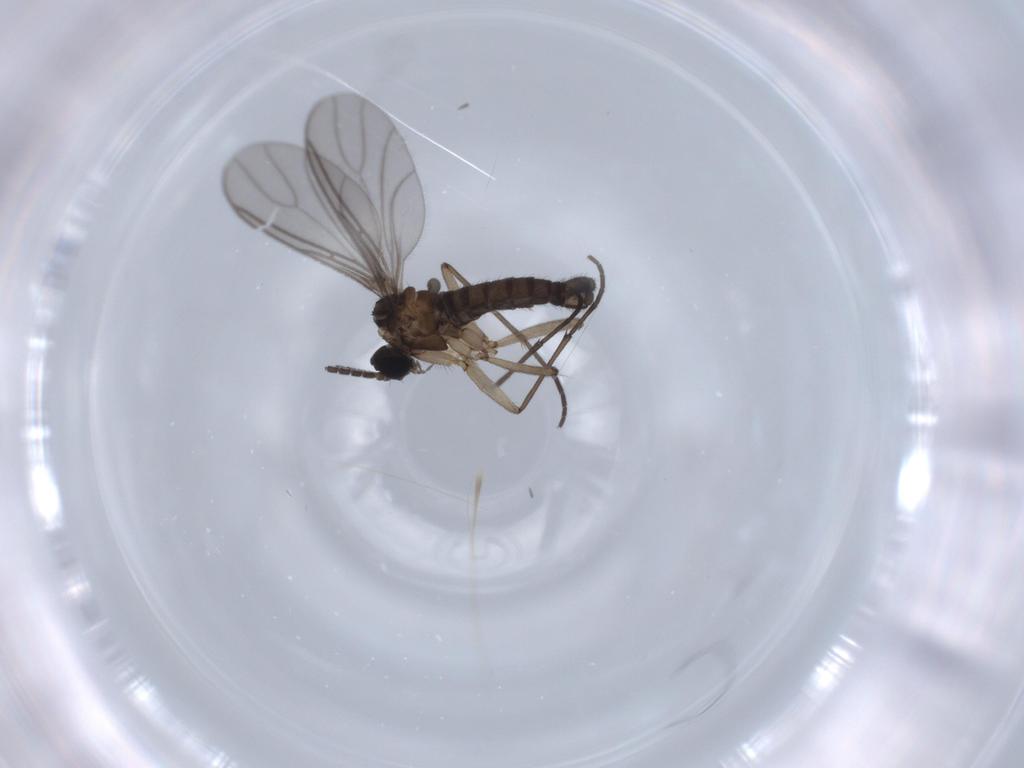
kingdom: Animalia
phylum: Arthropoda
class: Insecta
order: Diptera
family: Sciaridae
